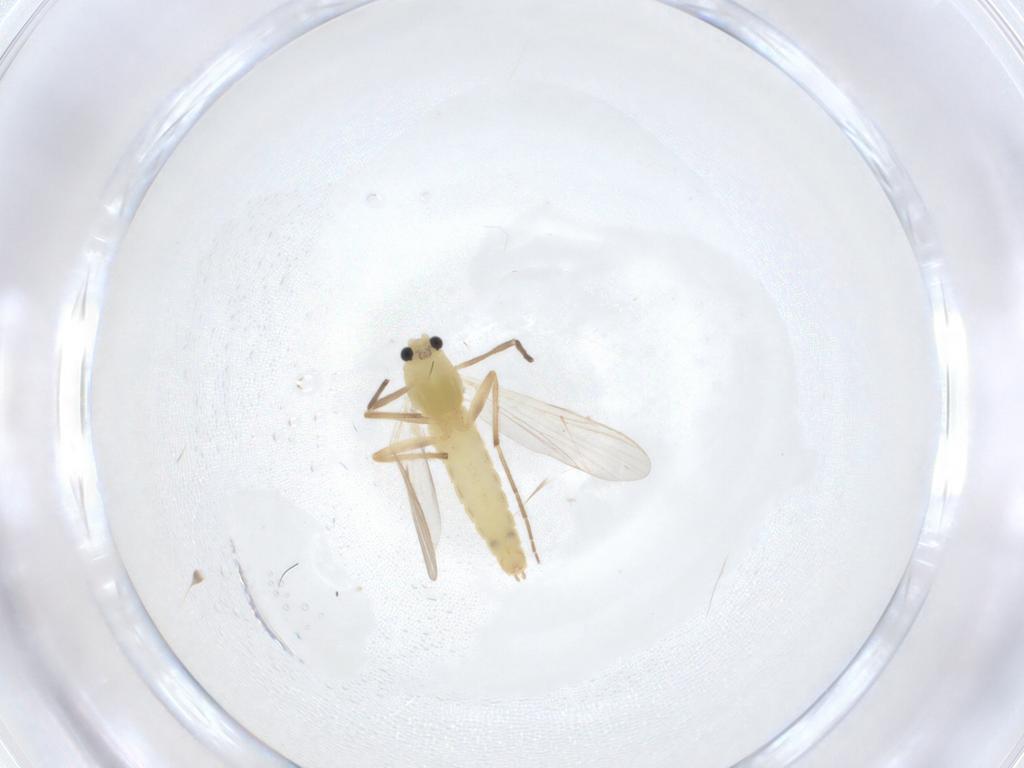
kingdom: Animalia
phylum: Arthropoda
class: Insecta
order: Diptera
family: Chironomidae
